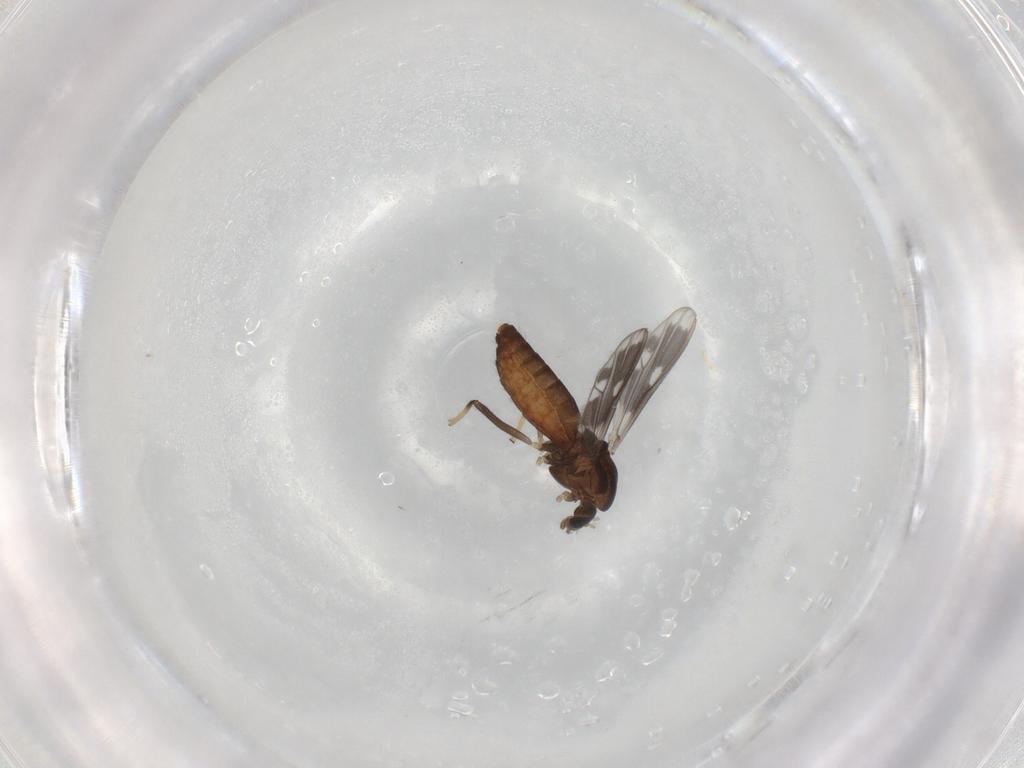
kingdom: Animalia
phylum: Arthropoda
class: Insecta
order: Diptera
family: Chironomidae
